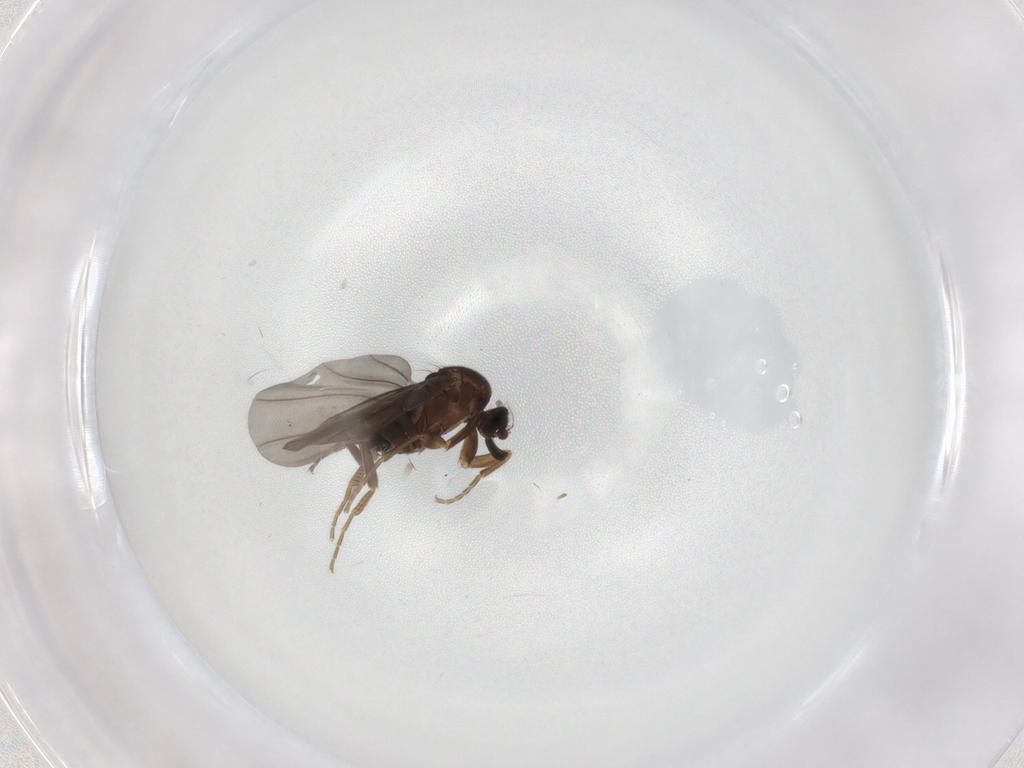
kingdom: Animalia
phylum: Arthropoda
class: Insecta
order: Diptera
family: Phoridae
